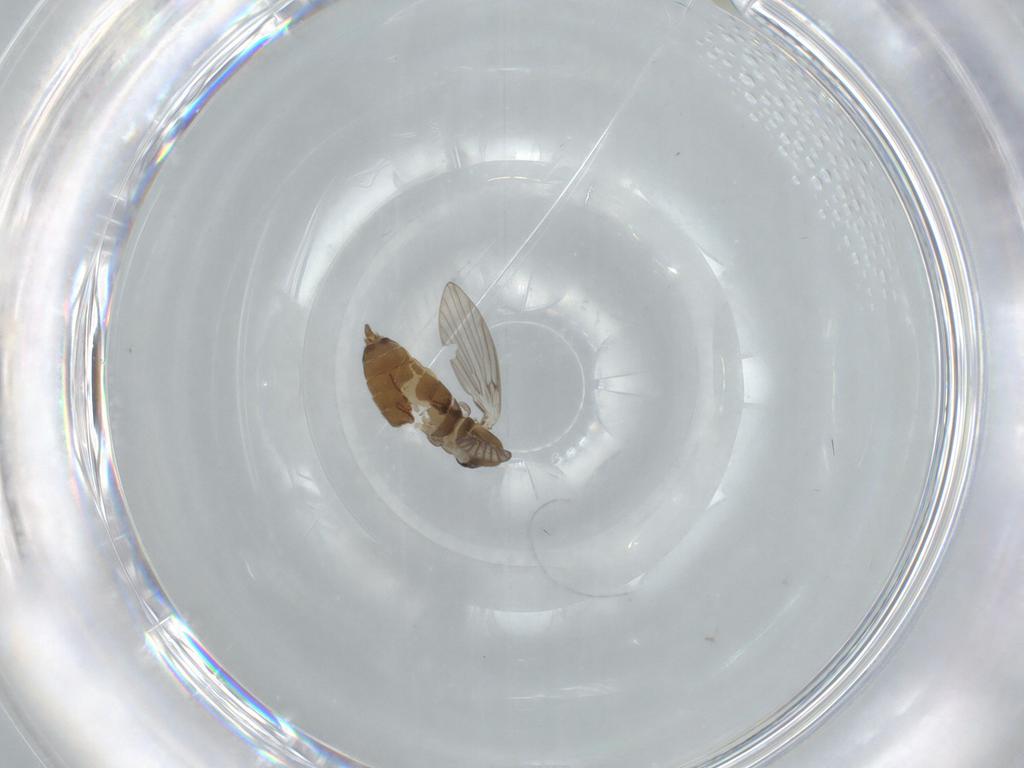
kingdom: Animalia
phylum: Arthropoda
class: Insecta
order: Diptera
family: Psychodidae
